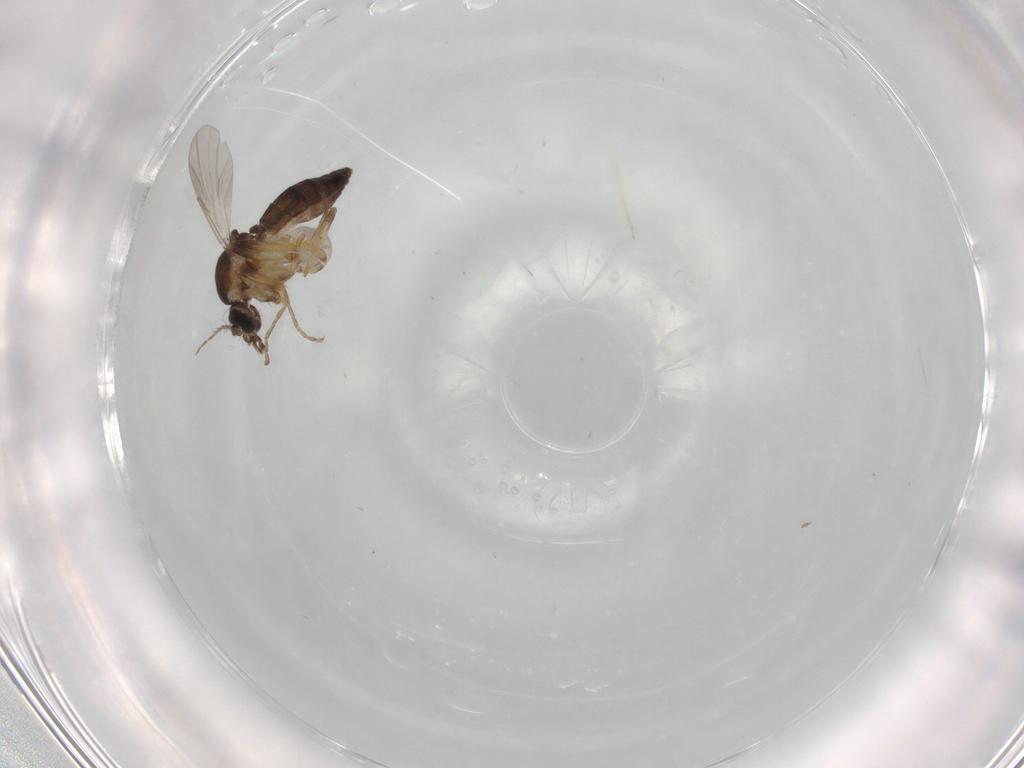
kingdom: Animalia
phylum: Arthropoda
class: Insecta
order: Diptera
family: Ceratopogonidae
